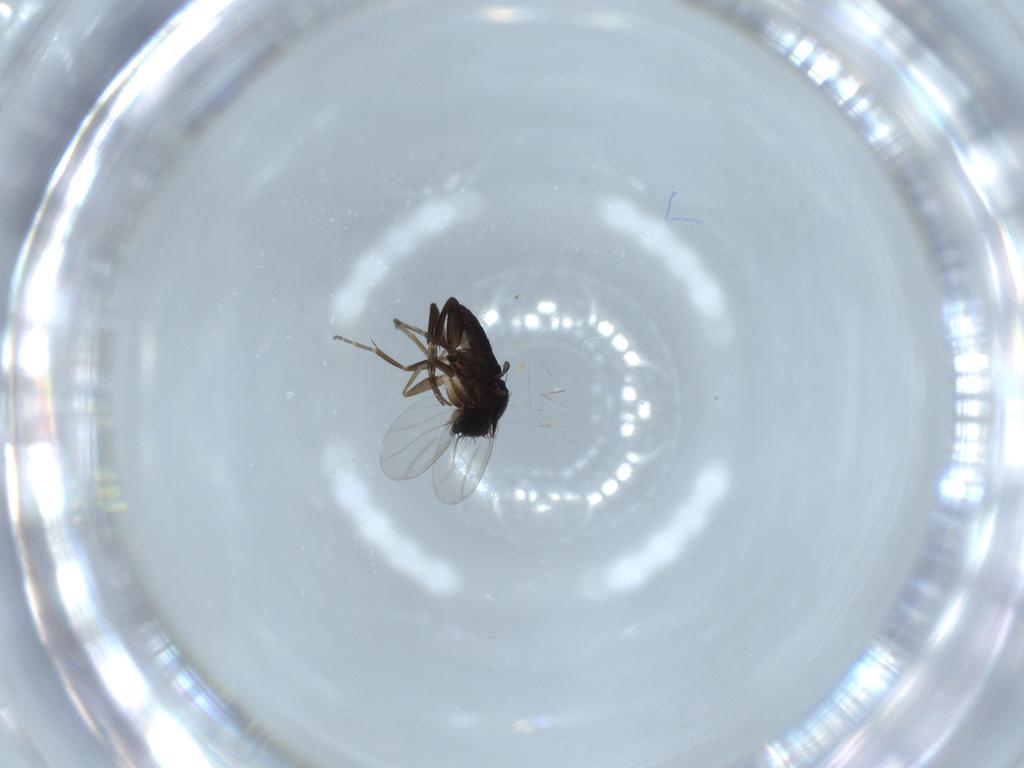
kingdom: Animalia
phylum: Arthropoda
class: Insecta
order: Diptera
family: Phoridae
